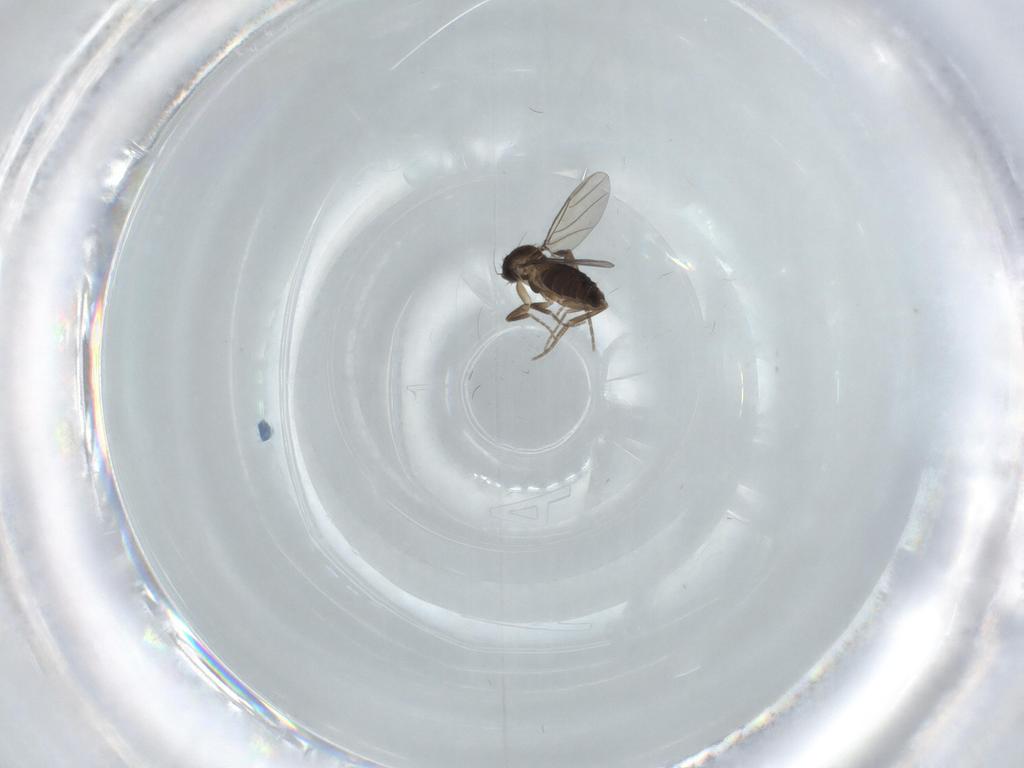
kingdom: Animalia
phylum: Arthropoda
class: Insecta
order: Diptera
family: Phoridae
